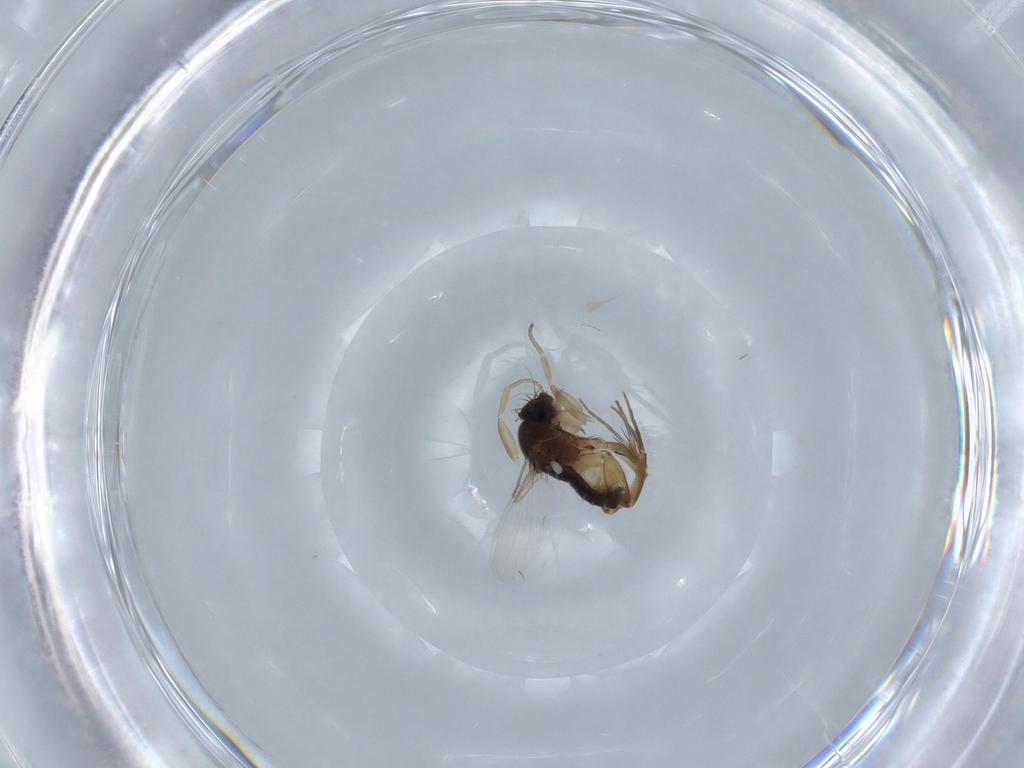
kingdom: Animalia
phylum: Arthropoda
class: Insecta
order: Diptera
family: Phoridae
